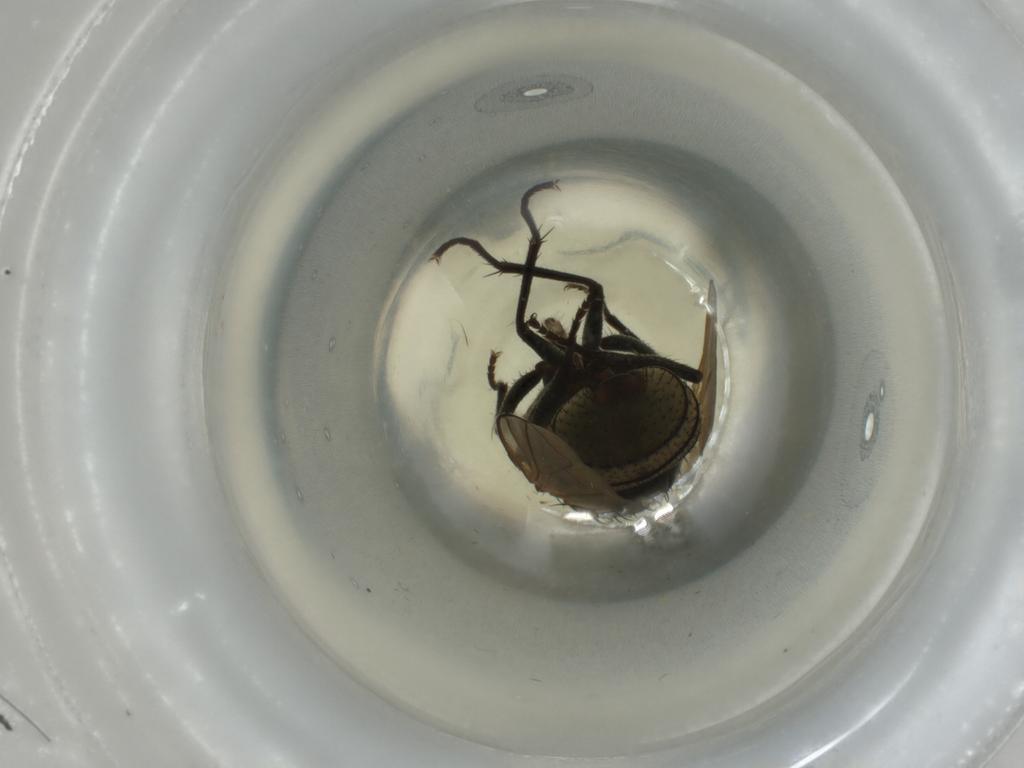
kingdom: Animalia
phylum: Arthropoda
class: Insecta
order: Diptera
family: Muscidae
